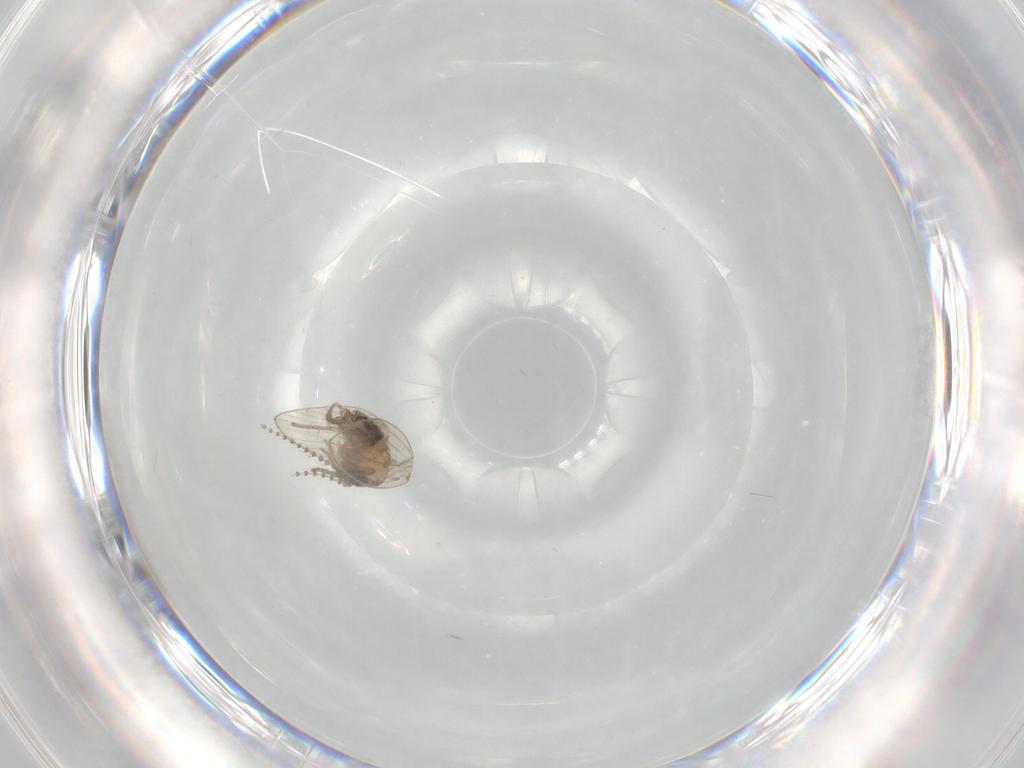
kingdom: Animalia
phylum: Arthropoda
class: Insecta
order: Diptera
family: Psychodidae
